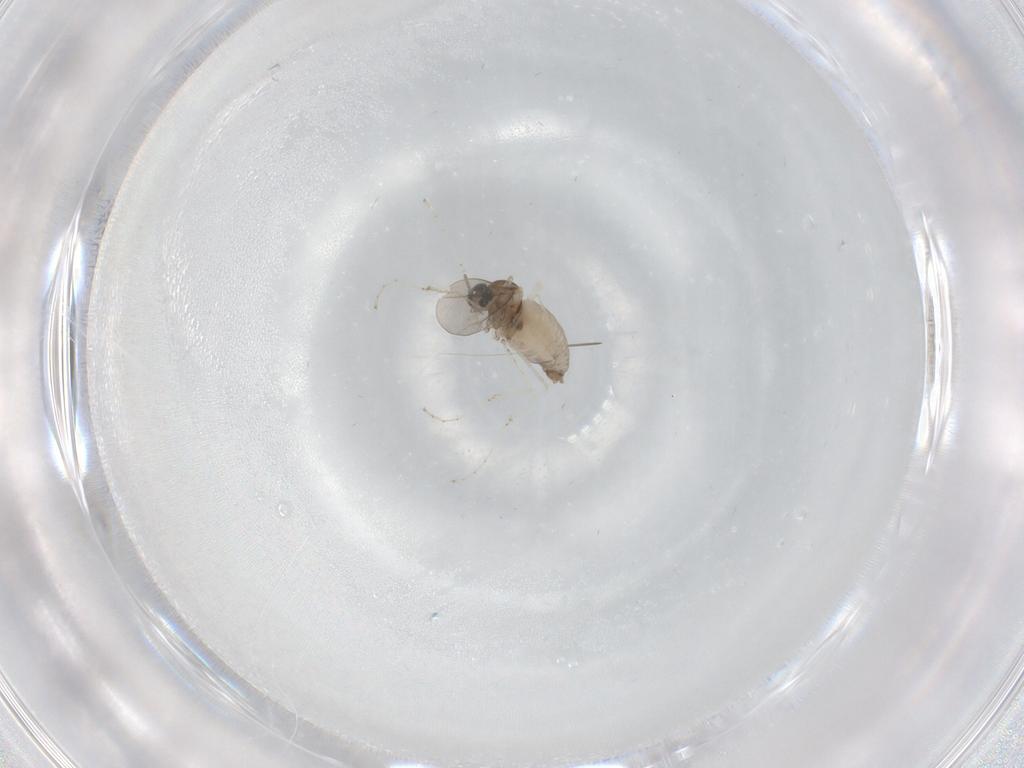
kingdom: Animalia
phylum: Arthropoda
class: Insecta
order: Diptera
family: Cecidomyiidae
